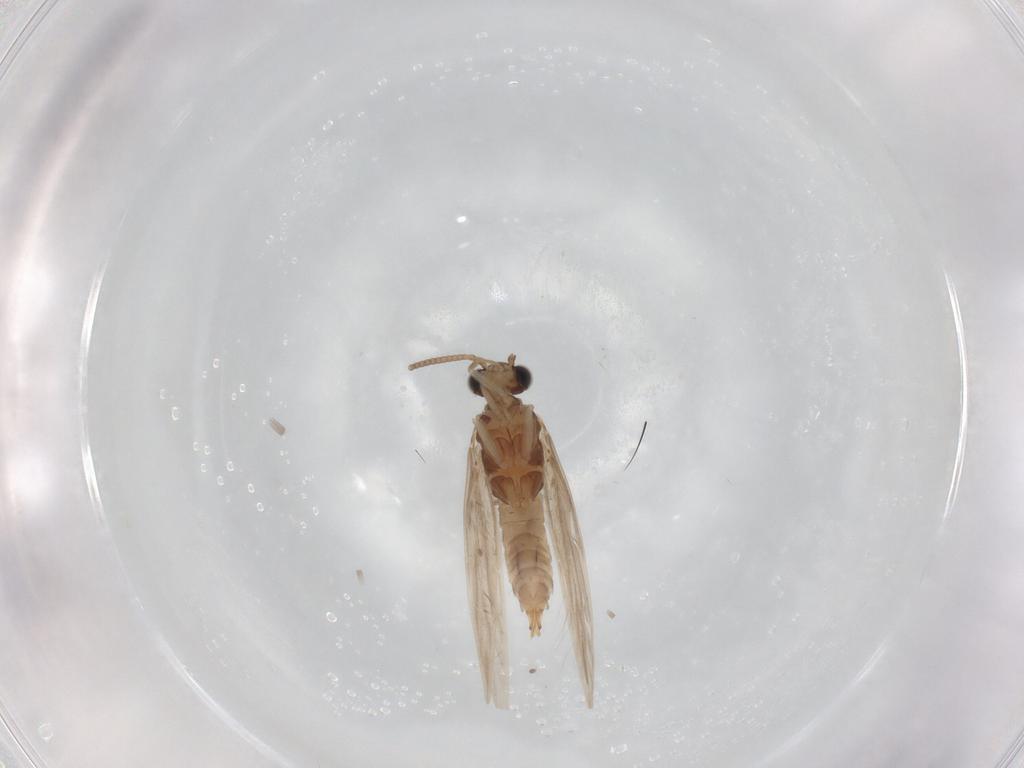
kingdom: Animalia
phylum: Arthropoda
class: Insecta
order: Trichoptera
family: Hydroptilidae
